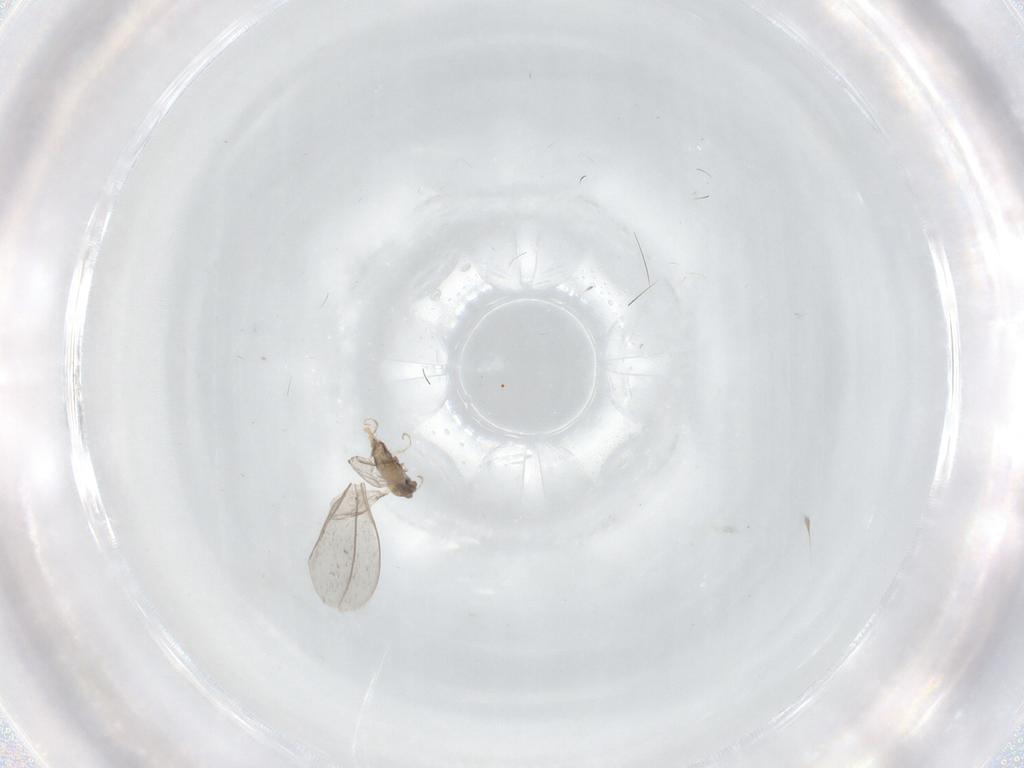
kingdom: Animalia
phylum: Arthropoda
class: Insecta
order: Diptera
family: Cecidomyiidae
